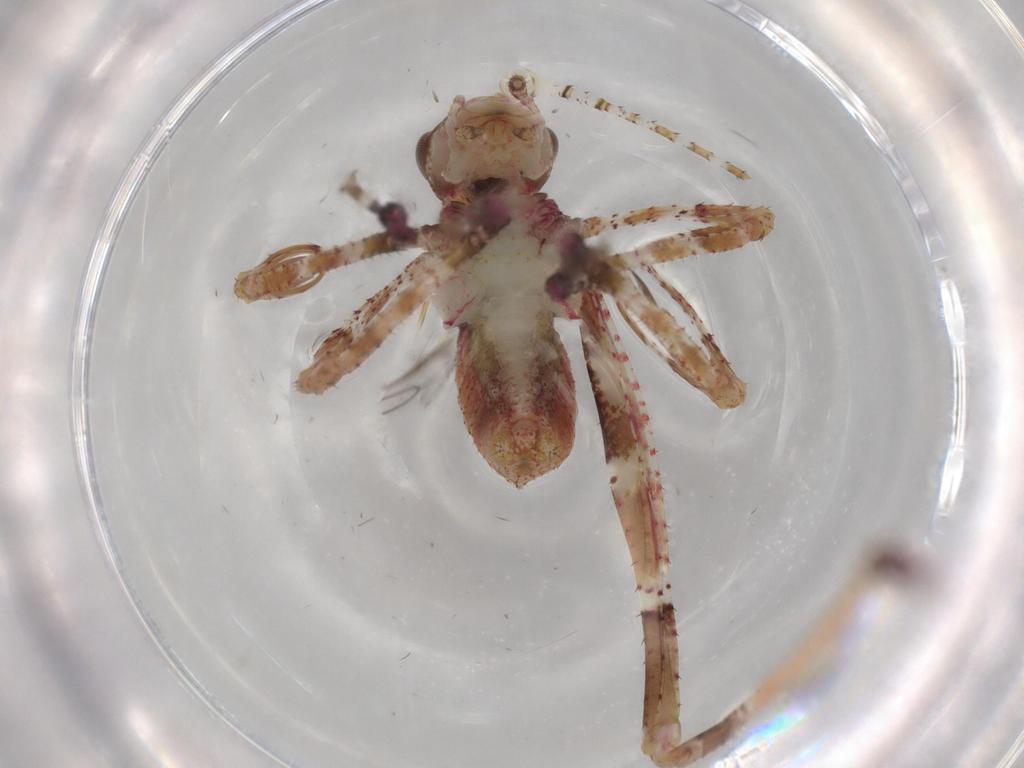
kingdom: Animalia
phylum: Arthropoda
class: Insecta
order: Orthoptera
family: Tettigoniidae
